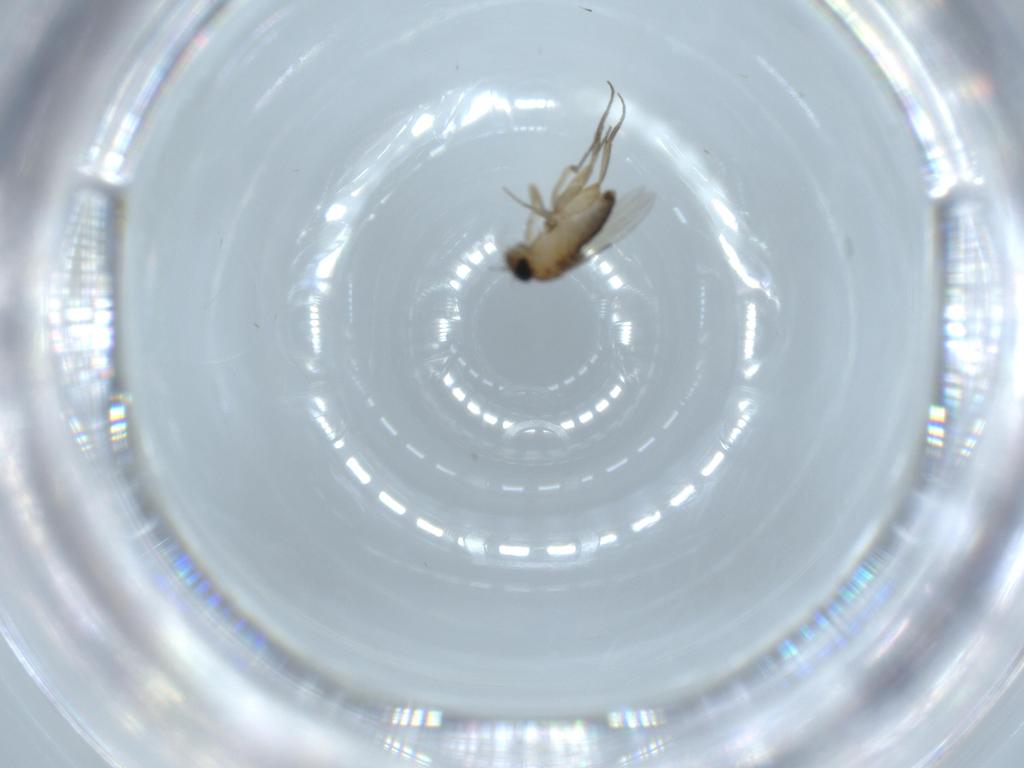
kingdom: Animalia
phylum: Arthropoda
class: Insecta
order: Diptera
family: Phoridae
